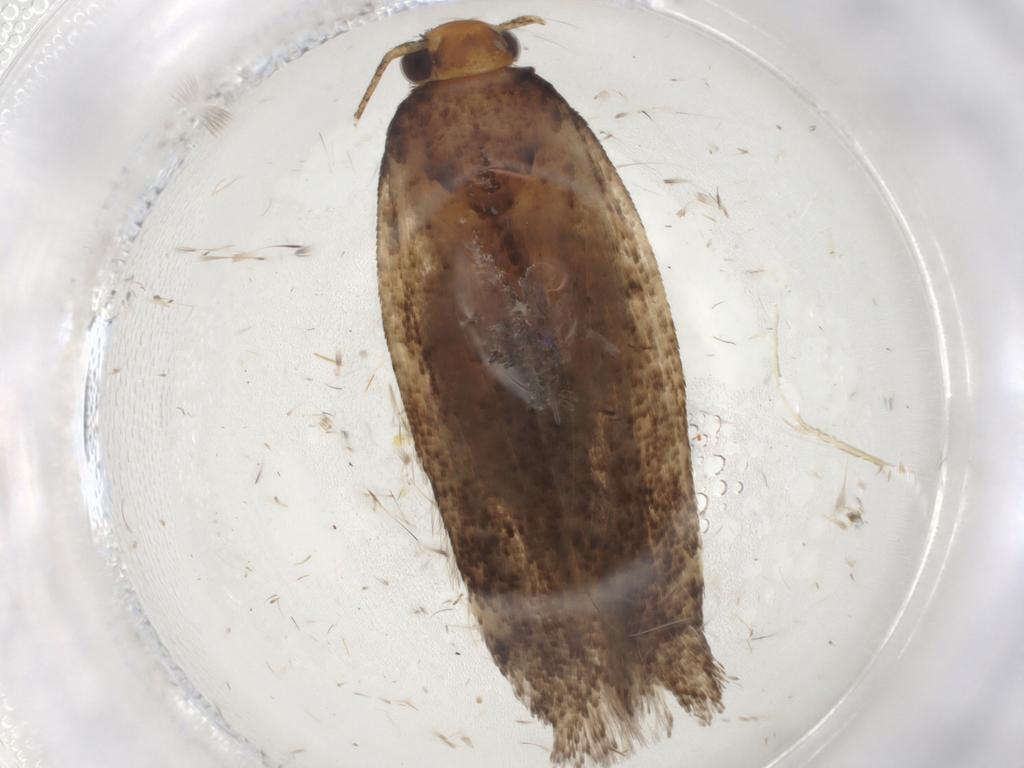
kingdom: Animalia
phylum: Arthropoda
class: Insecta
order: Lepidoptera
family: Gelechiidae
